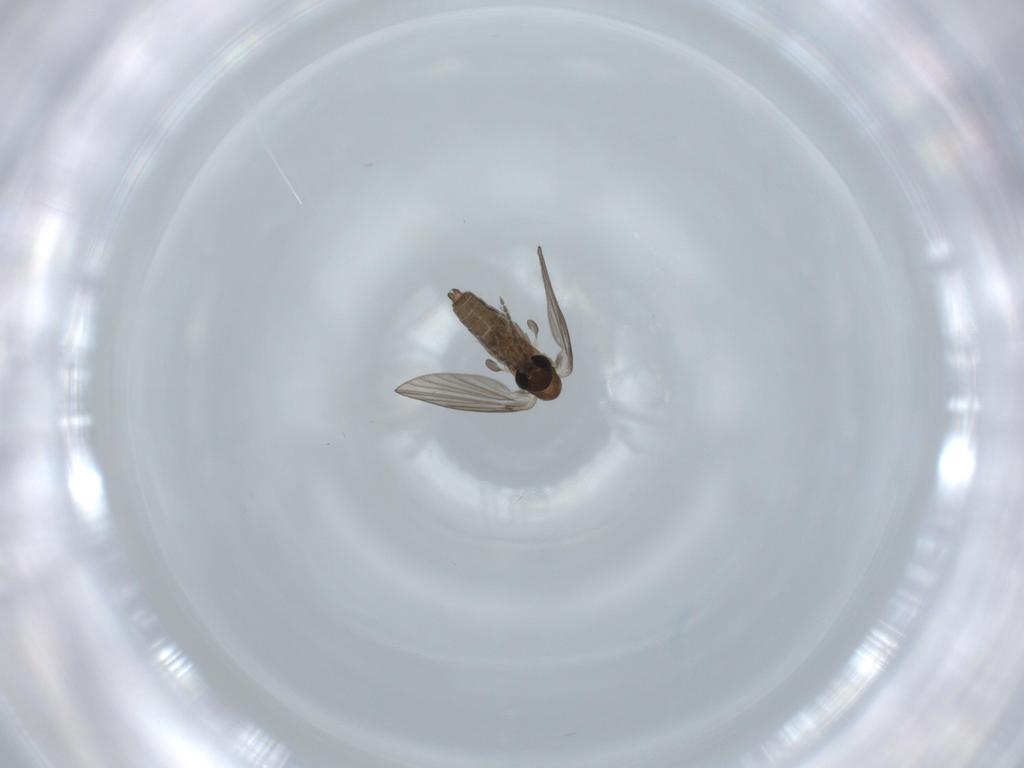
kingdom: Animalia
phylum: Arthropoda
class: Insecta
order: Diptera
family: Psychodidae
